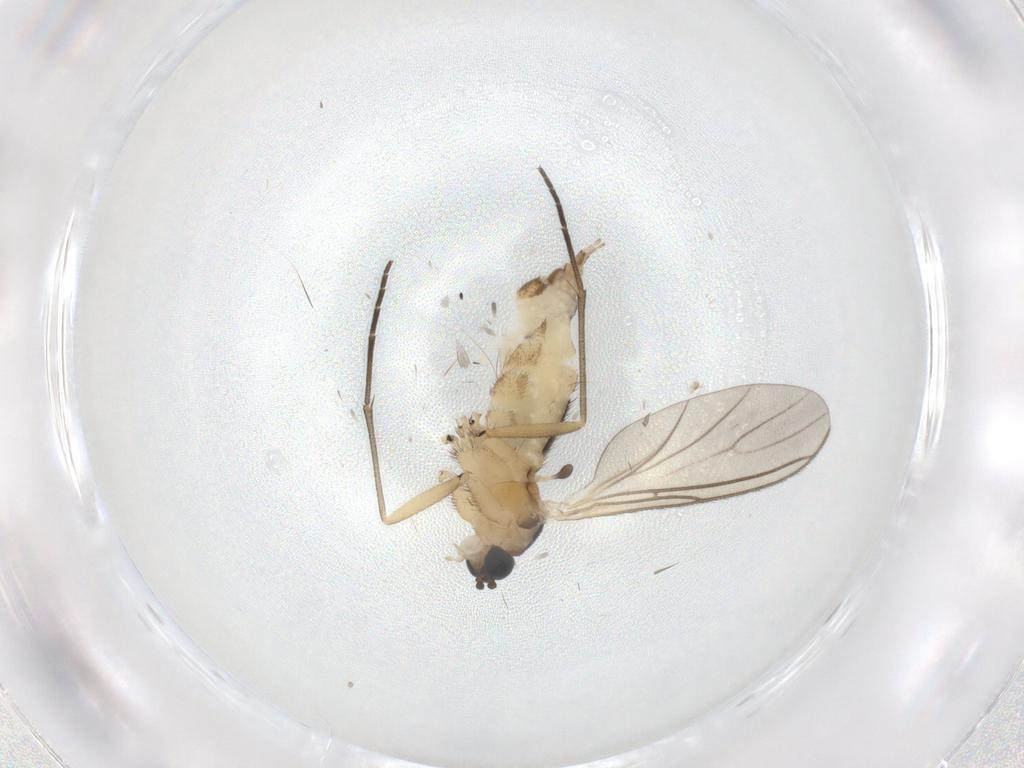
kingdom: Animalia
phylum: Arthropoda
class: Insecta
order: Diptera
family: Sciaridae
